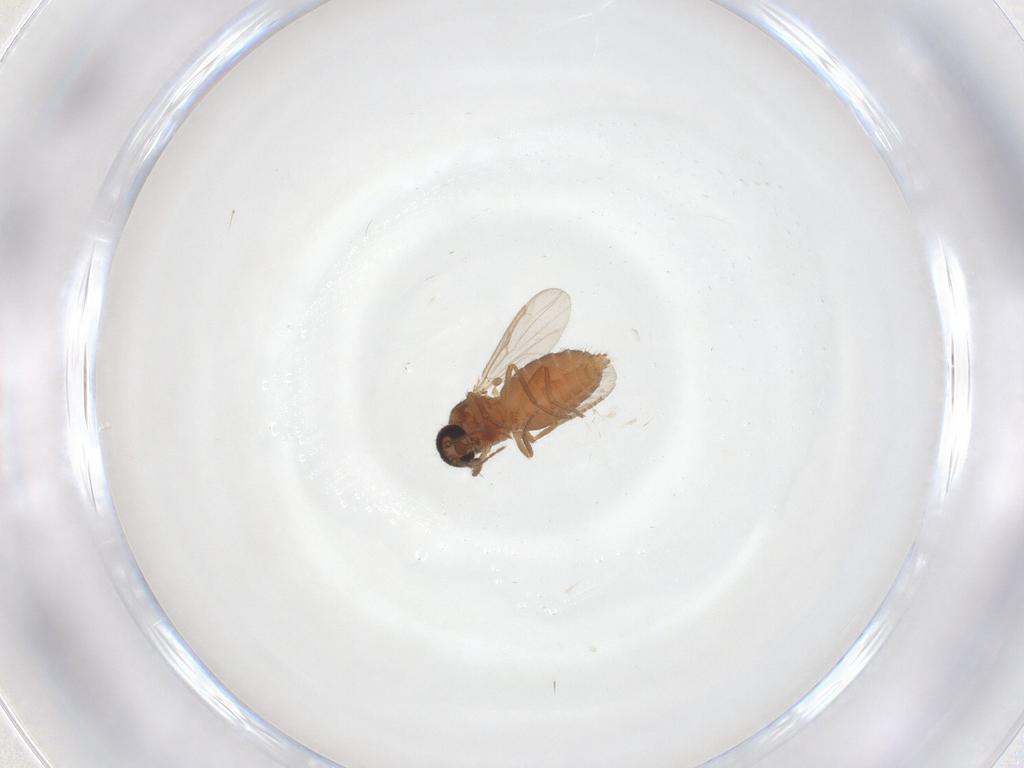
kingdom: Animalia
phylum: Arthropoda
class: Insecta
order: Diptera
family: Ceratopogonidae
